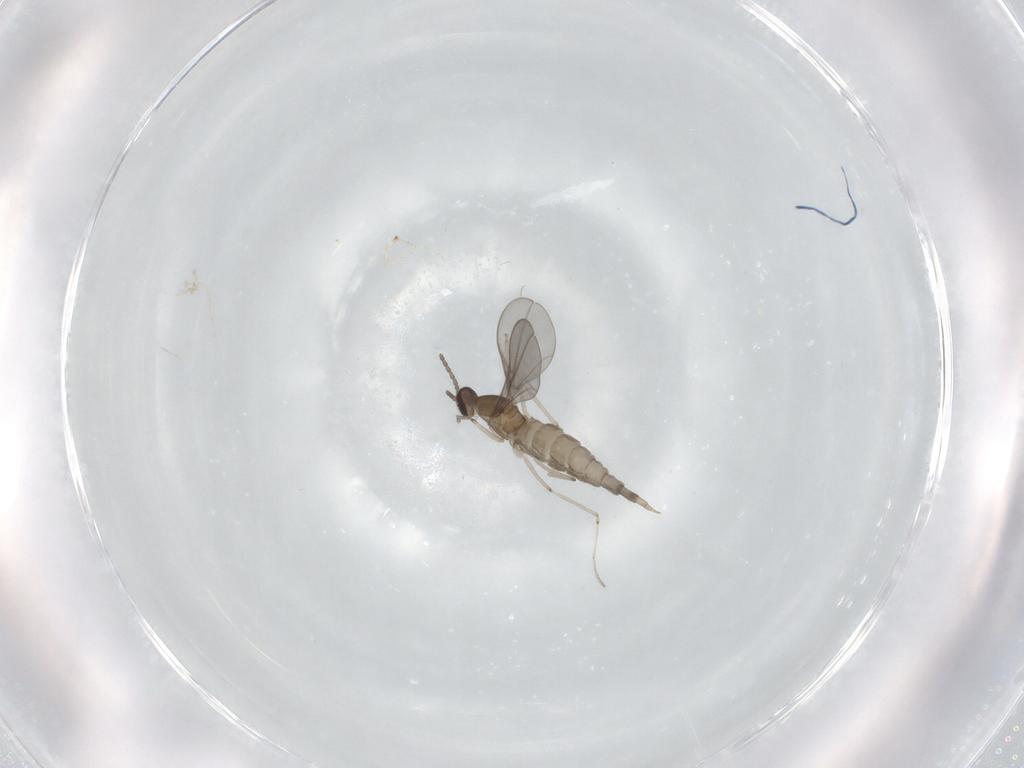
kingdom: Animalia
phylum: Arthropoda
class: Insecta
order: Diptera
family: Cecidomyiidae
